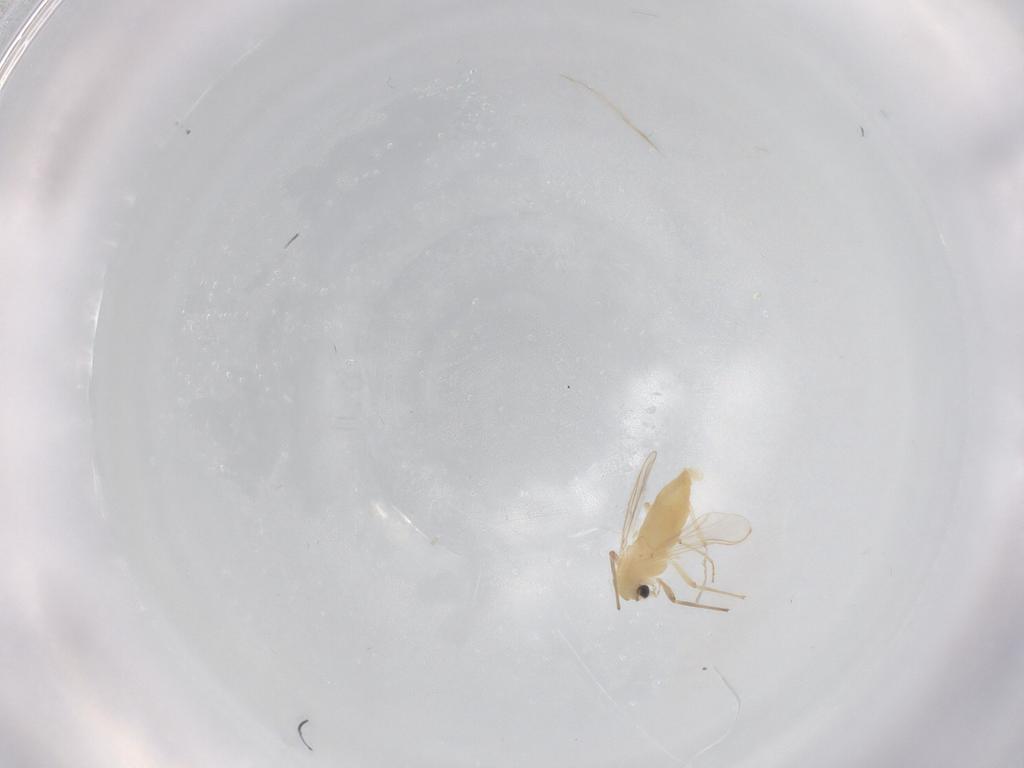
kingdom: Animalia
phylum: Arthropoda
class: Insecta
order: Diptera
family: Chironomidae
